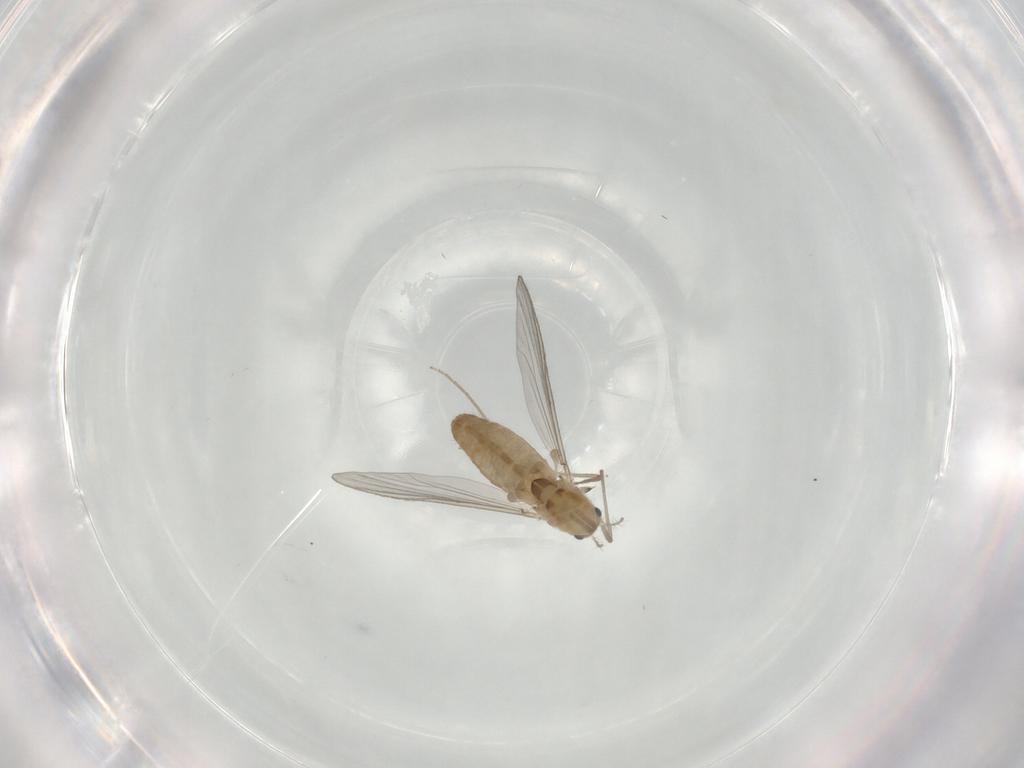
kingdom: Animalia
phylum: Arthropoda
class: Insecta
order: Diptera
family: Chironomidae
